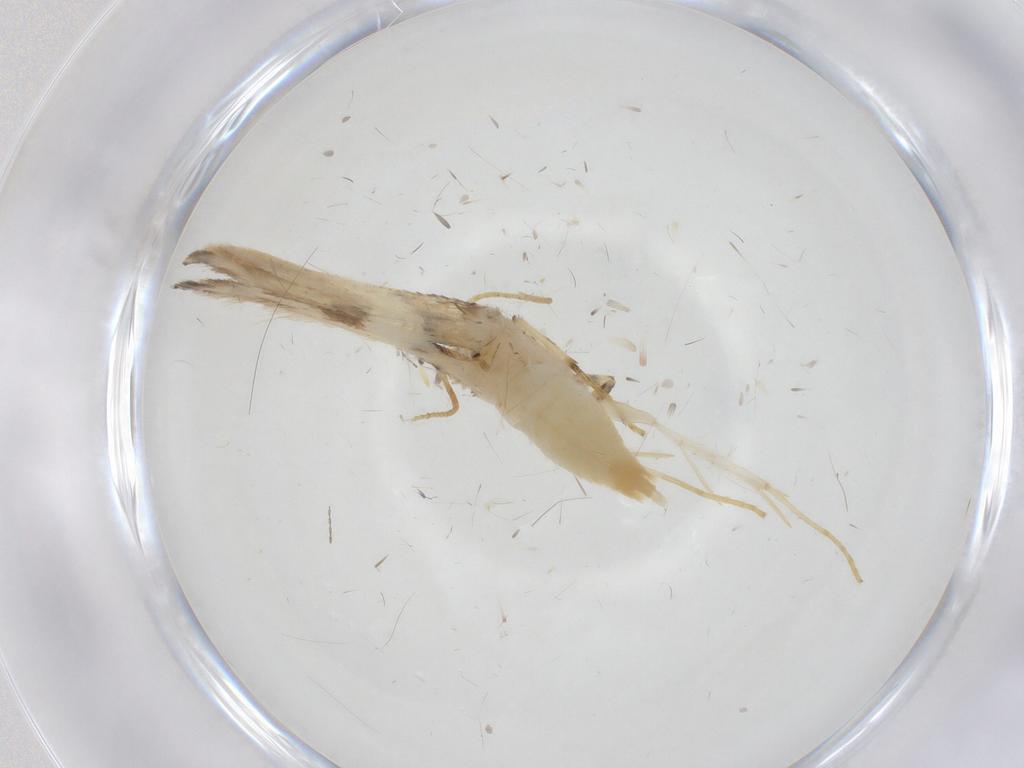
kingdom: Animalia
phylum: Arthropoda
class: Insecta
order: Lepidoptera
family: Tineidae
